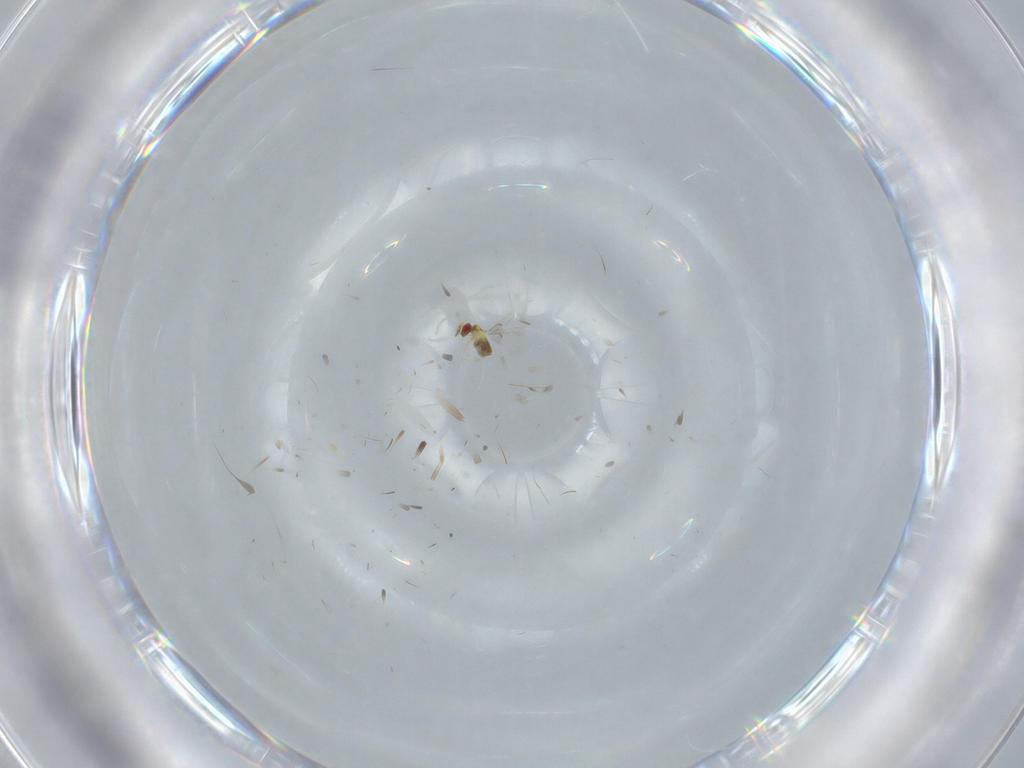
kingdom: Animalia
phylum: Arthropoda
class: Insecta
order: Hymenoptera
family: Trichogrammatidae
